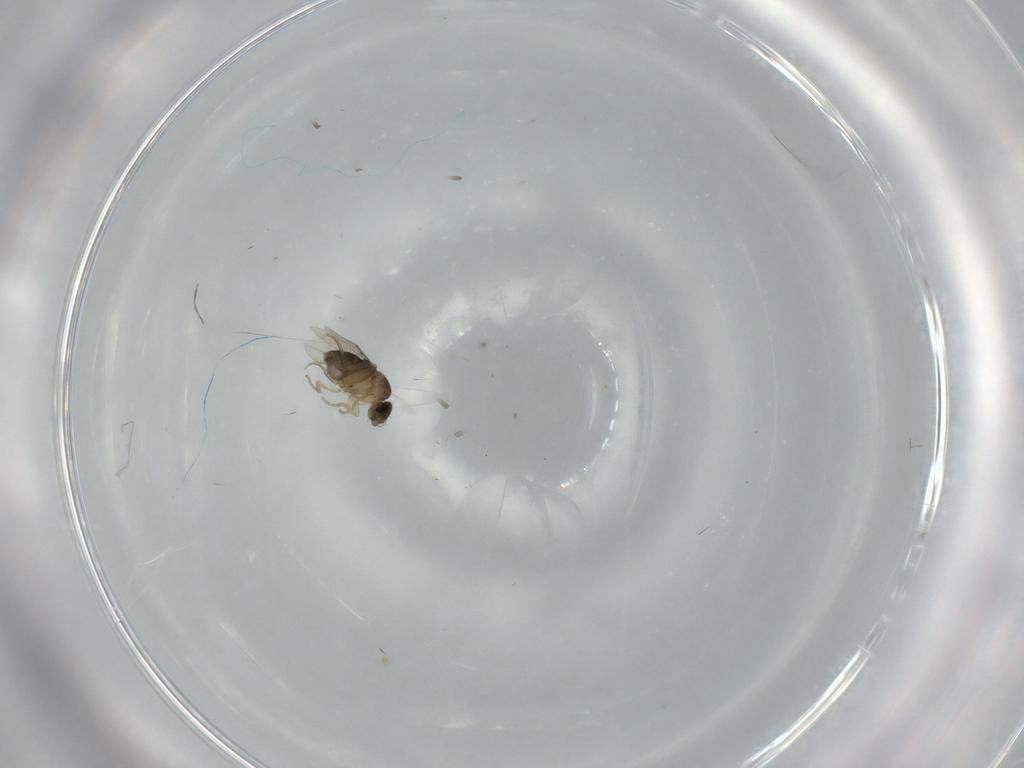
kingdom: Animalia
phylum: Arthropoda
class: Insecta
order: Diptera
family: Phoridae
